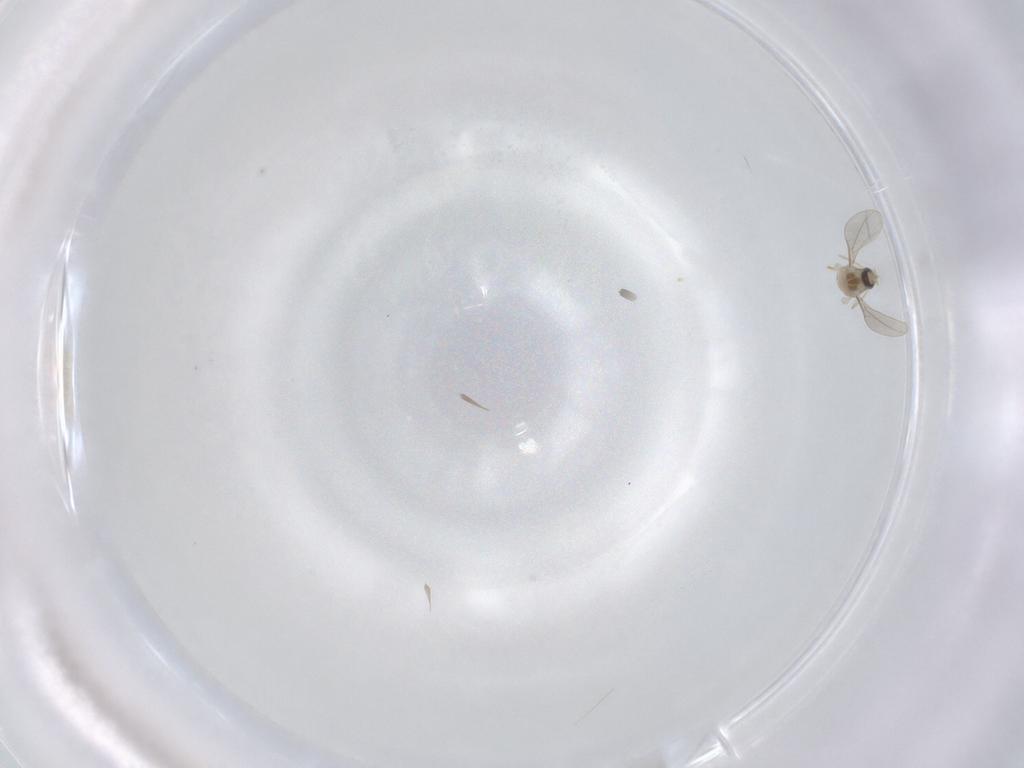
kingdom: Animalia
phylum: Arthropoda
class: Insecta
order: Diptera
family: Cecidomyiidae
